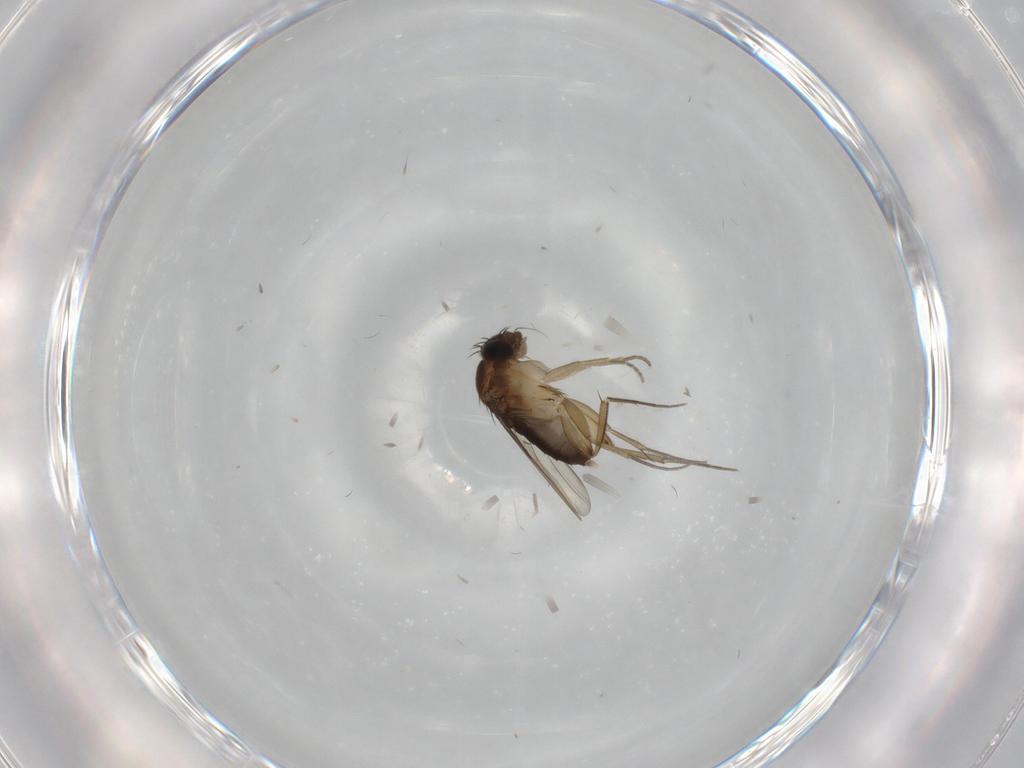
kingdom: Animalia
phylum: Arthropoda
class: Insecta
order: Diptera
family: Phoridae
